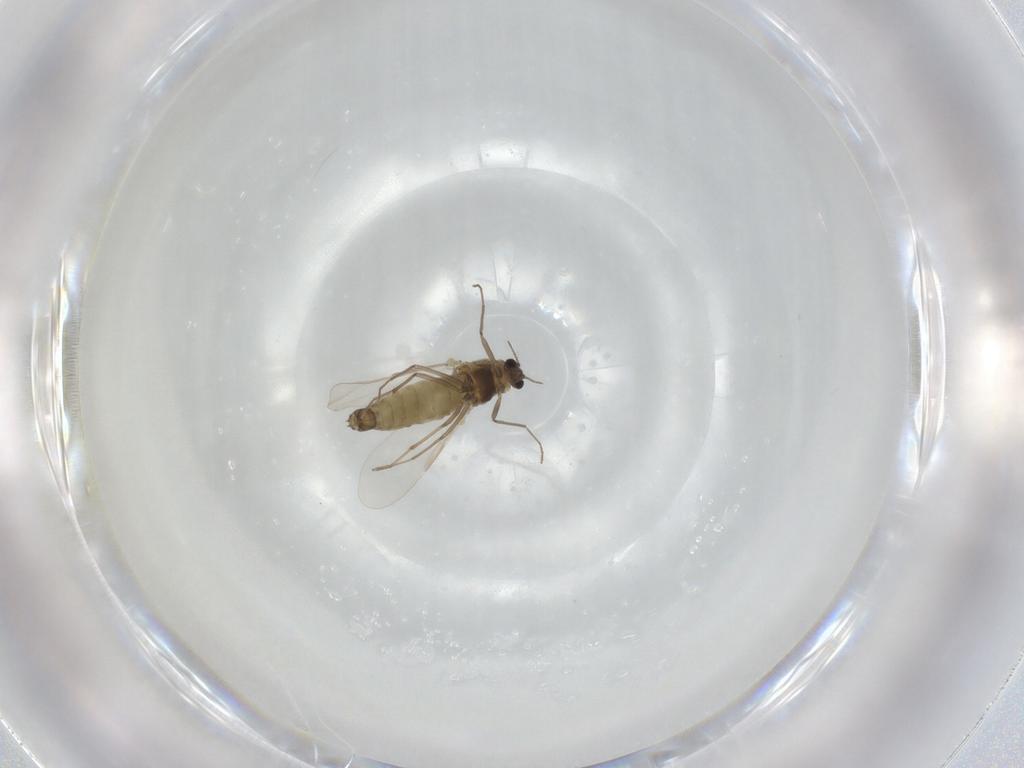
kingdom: Animalia
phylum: Arthropoda
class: Insecta
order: Diptera
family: Chironomidae
